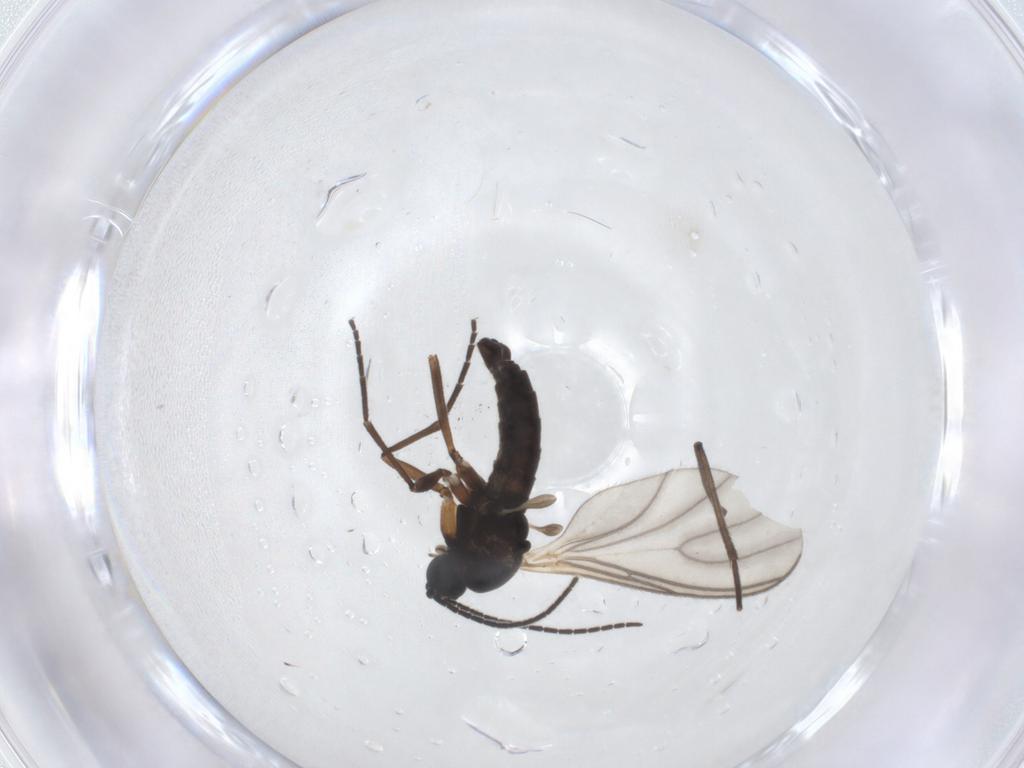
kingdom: Animalia
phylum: Arthropoda
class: Insecta
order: Diptera
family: Sciaridae
